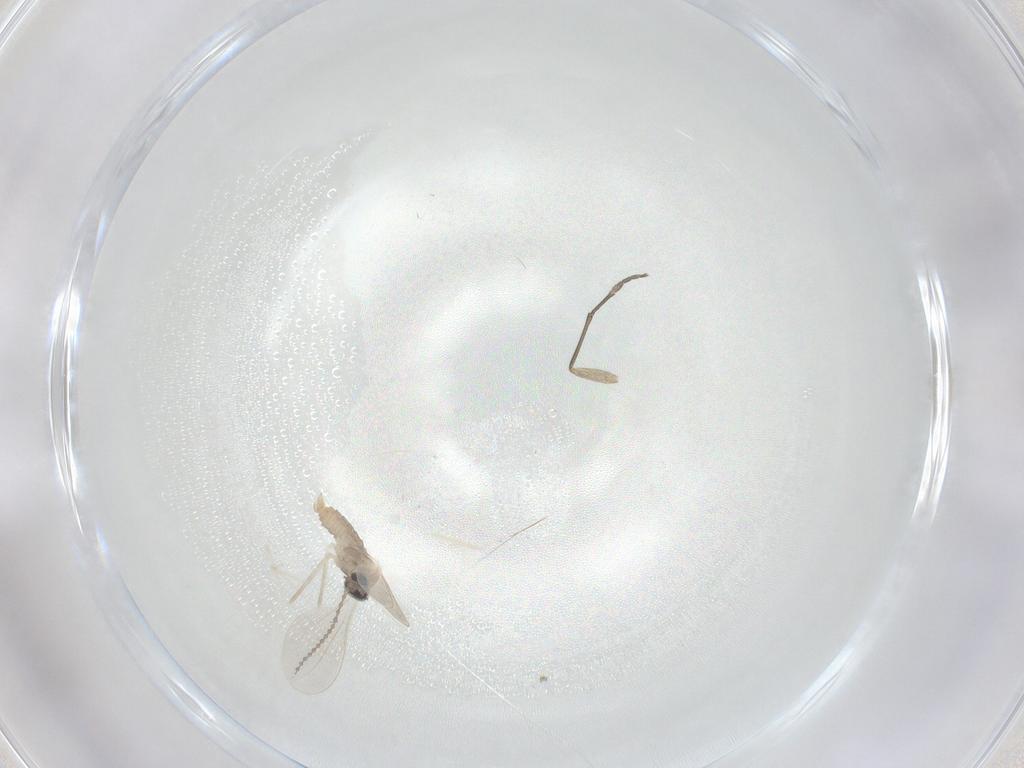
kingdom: Animalia
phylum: Arthropoda
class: Insecta
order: Diptera
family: Cecidomyiidae
